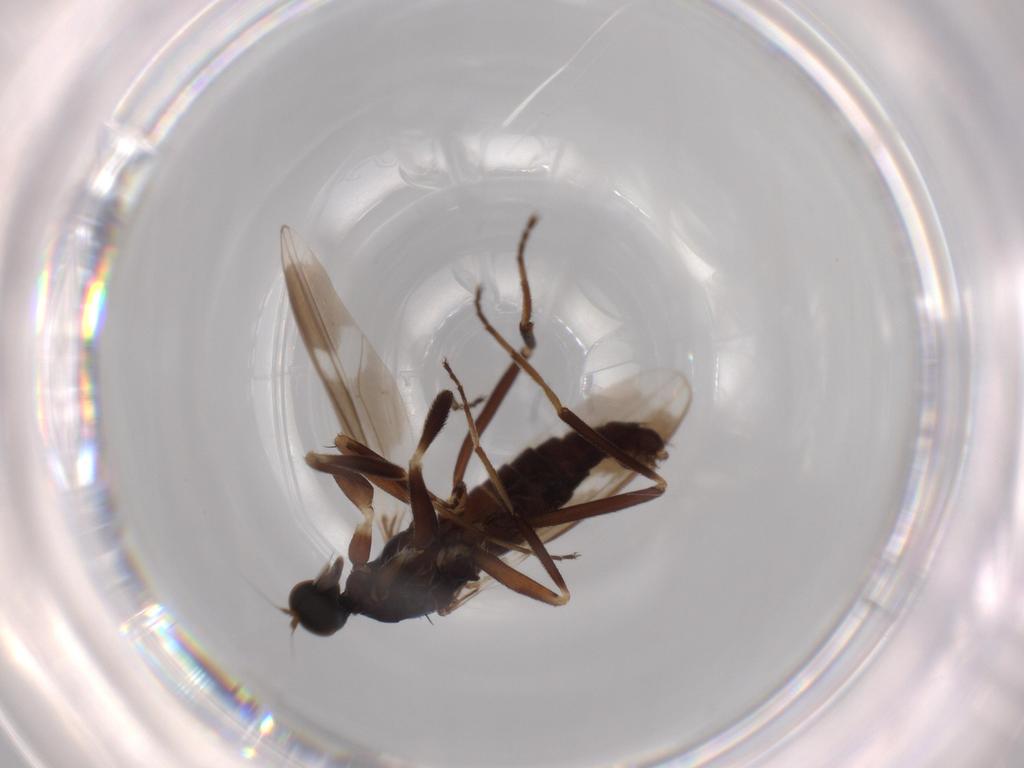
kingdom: Animalia
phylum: Arthropoda
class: Insecta
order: Diptera
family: Hybotidae
